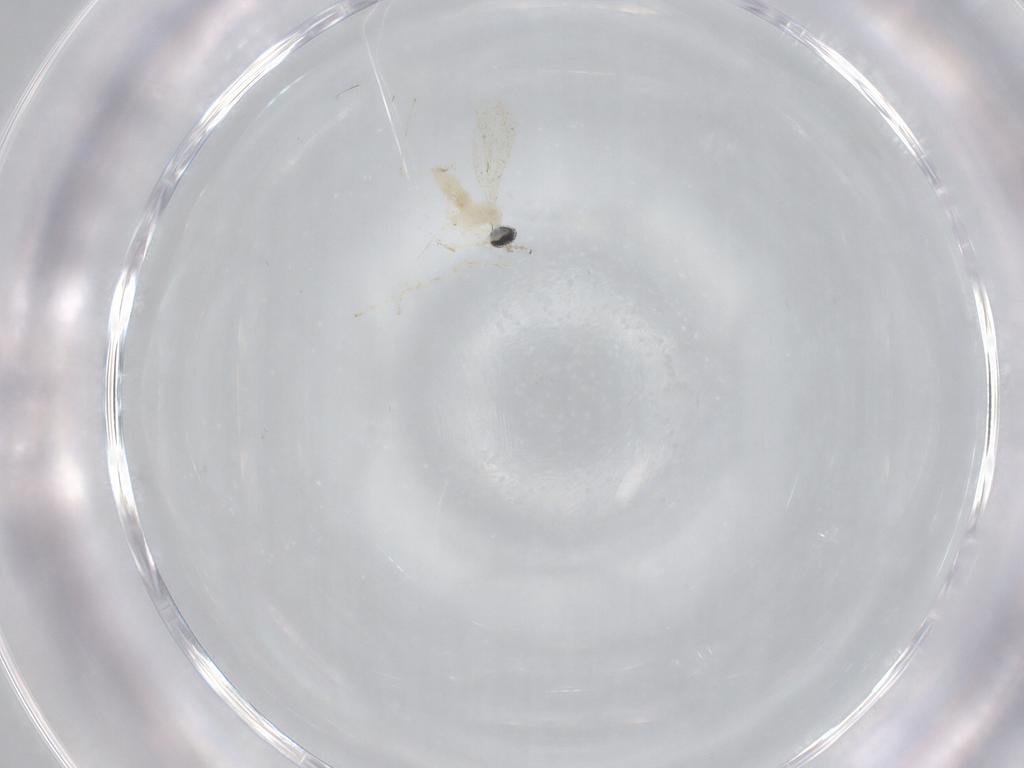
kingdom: Animalia
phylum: Arthropoda
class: Insecta
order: Diptera
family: Cecidomyiidae
